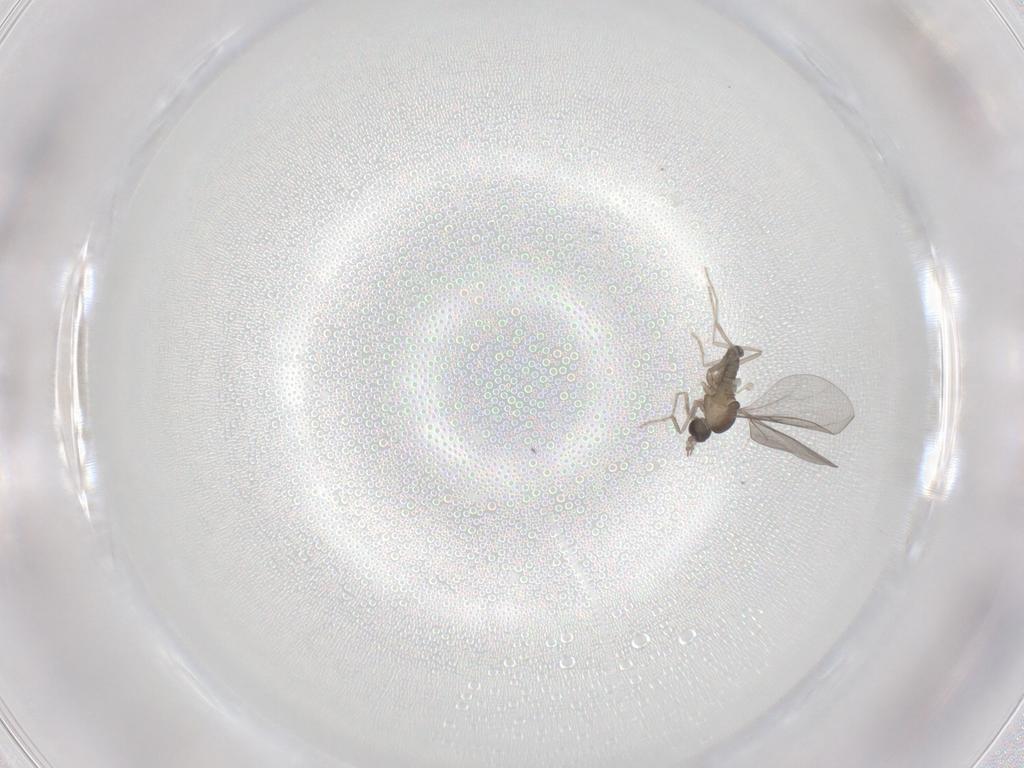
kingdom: Animalia
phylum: Arthropoda
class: Insecta
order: Diptera
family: Cecidomyiidae
